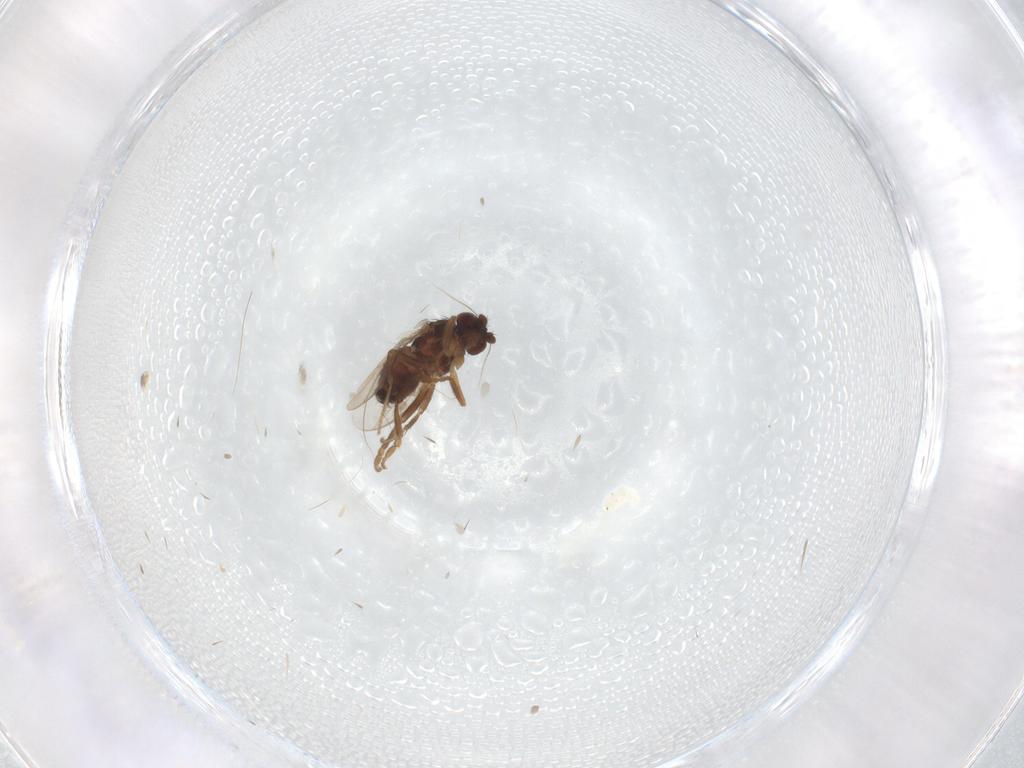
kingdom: Animalia
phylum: Arthropoda
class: Insecta
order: Diptera
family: Sphaeroceridae
